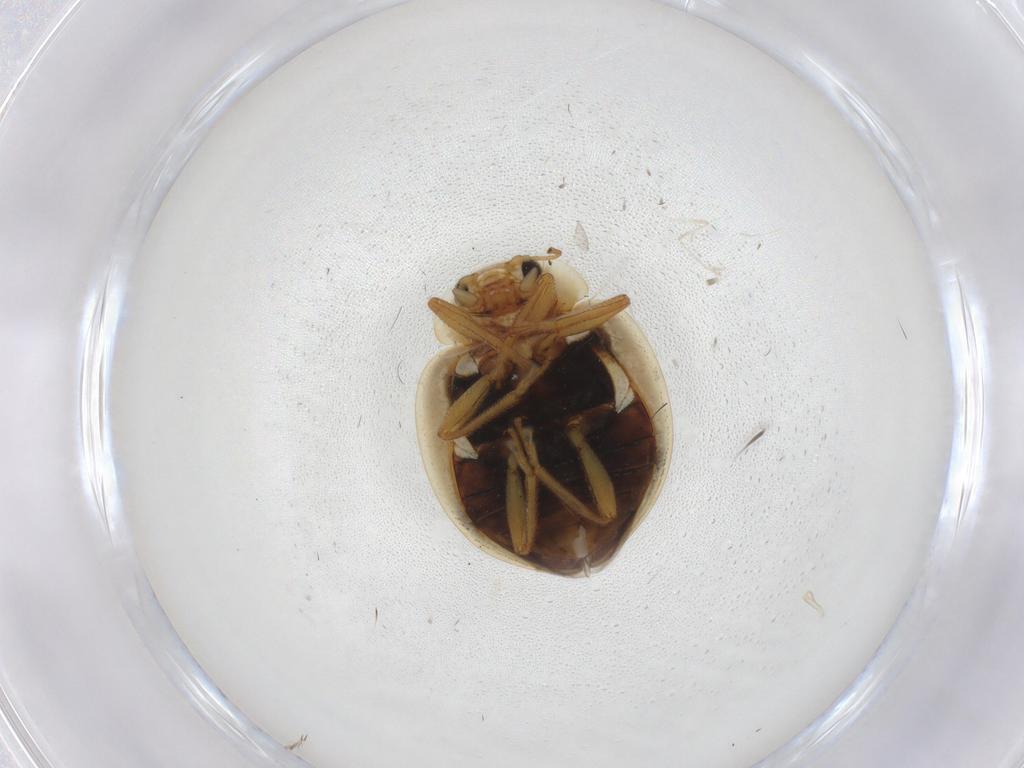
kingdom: Animalia
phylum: Arthropoda
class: Insecta
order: Coleoptera
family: Coccinellidae
